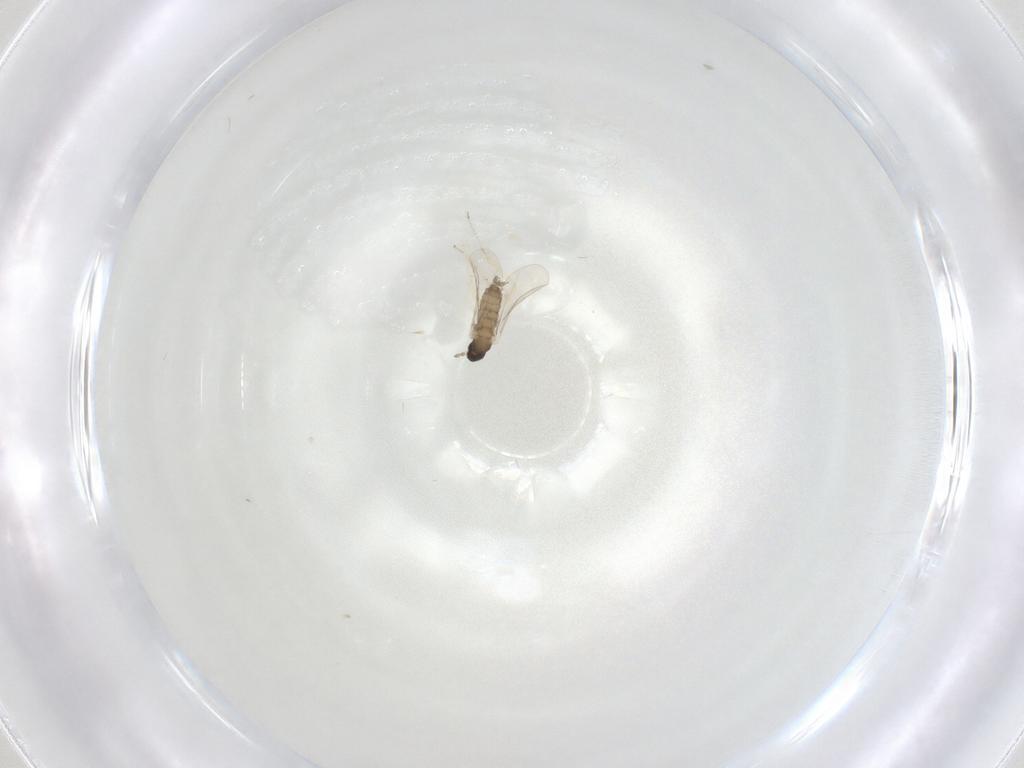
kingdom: Animalia
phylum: Arthropoda
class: Insecta
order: Diptera
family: Cecidomyiidae
